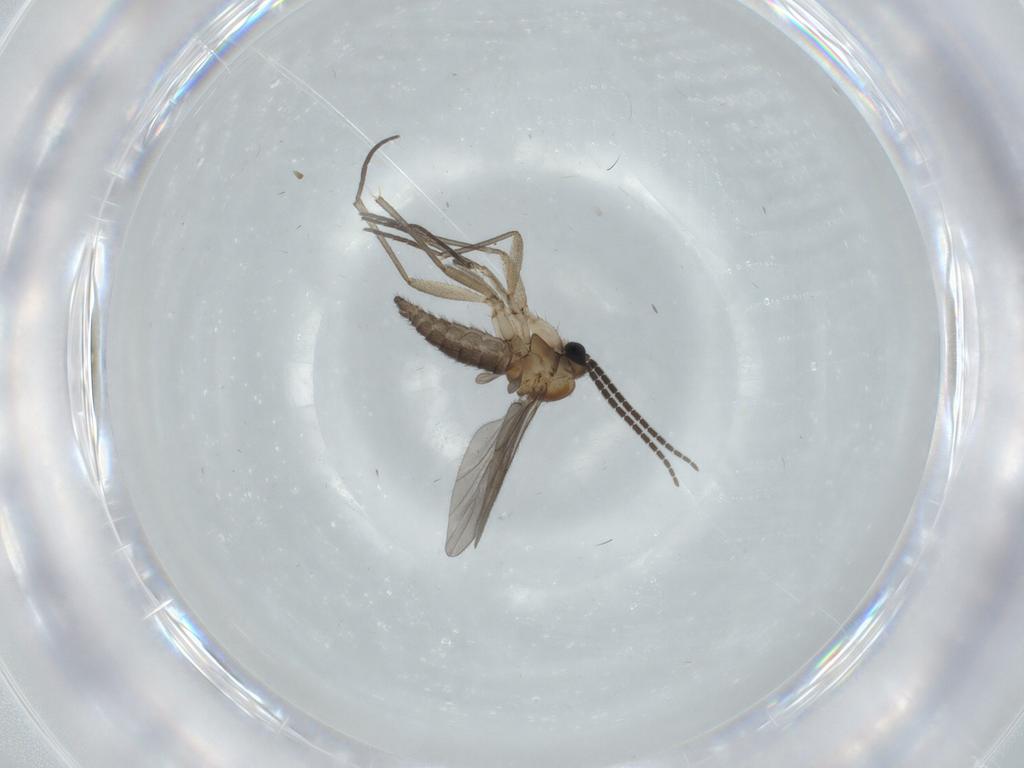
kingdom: Animalia
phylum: Arthropoda
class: Insecta
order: Diptera
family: Sciaridae
